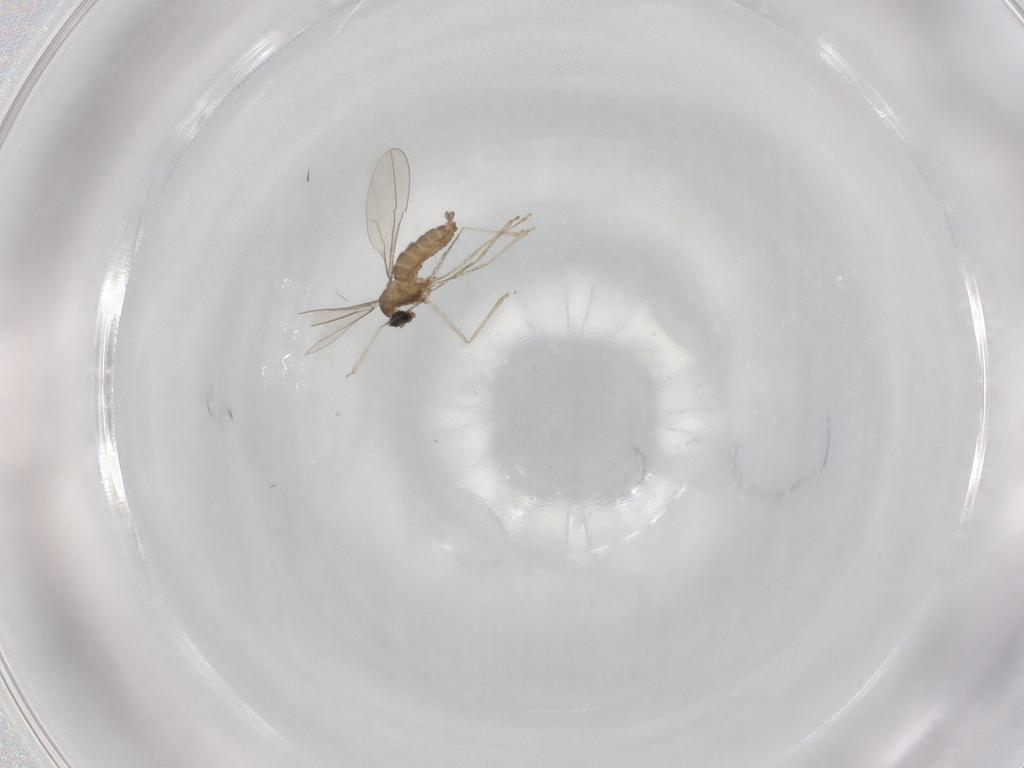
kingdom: Animalia
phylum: Arthropoda
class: Insecta
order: Diptera
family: Cecidomyiidae
